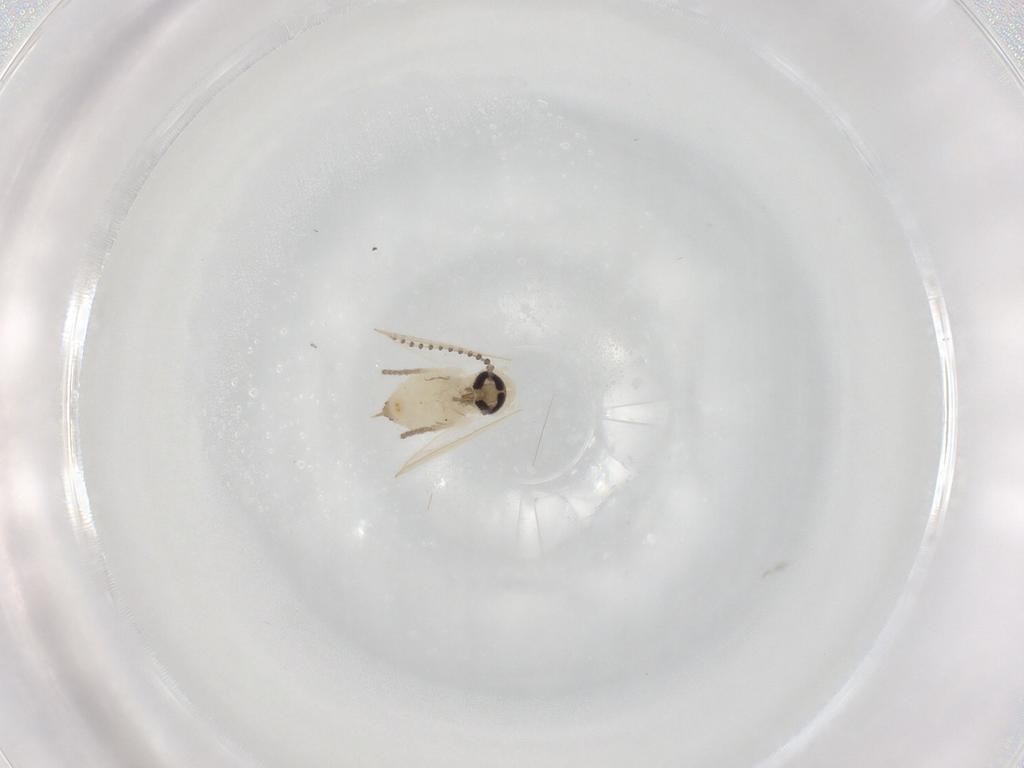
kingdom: Animalia
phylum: Arthropoda
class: Insecta
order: Diptera
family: Psychodidae
